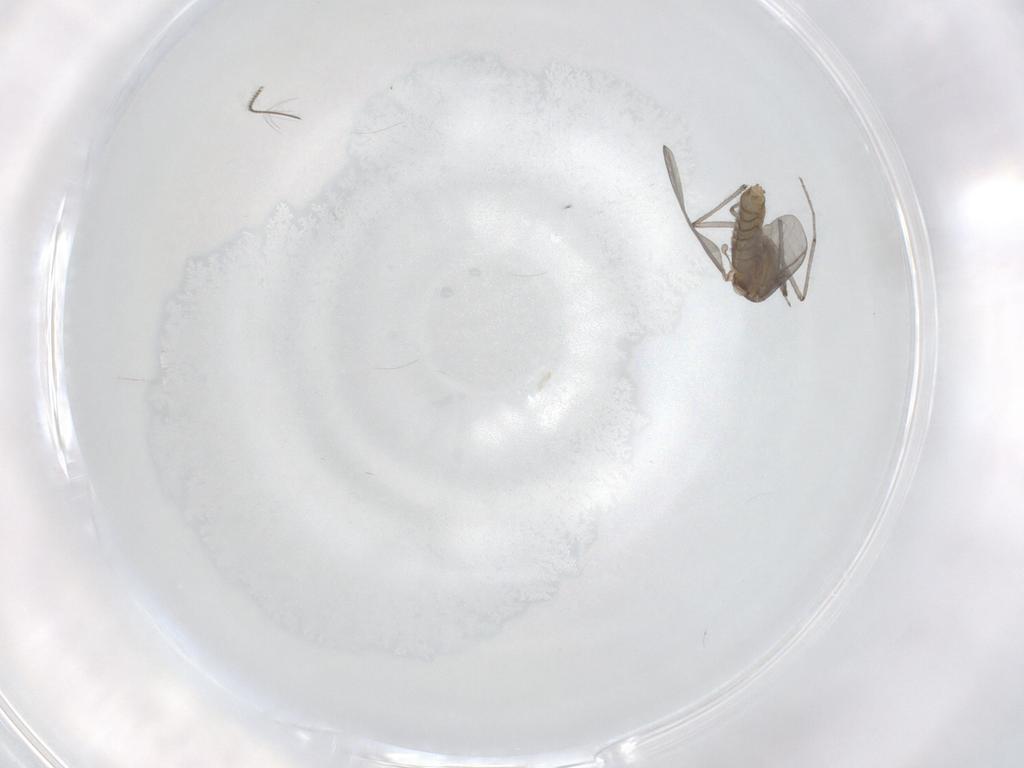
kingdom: Animalia
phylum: Arthropoda
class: Insecta
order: Diptera
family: Chironomidae
